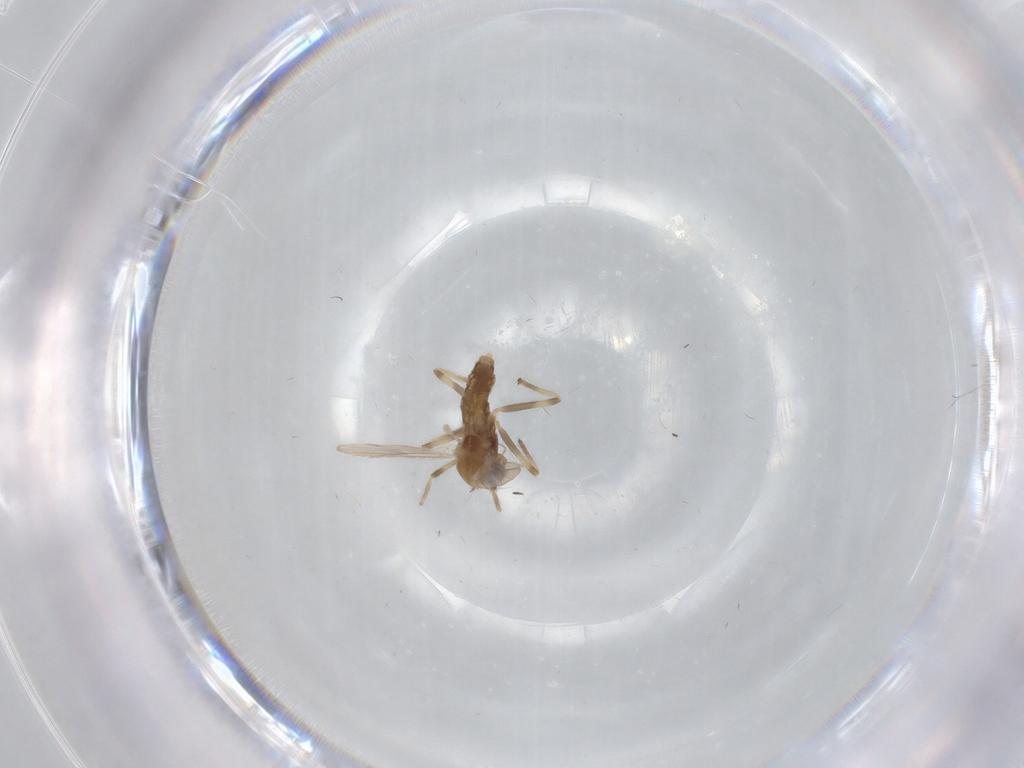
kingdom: Animalia
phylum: Arthropoda
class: Insecta
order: Diptera
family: Chironomidae
